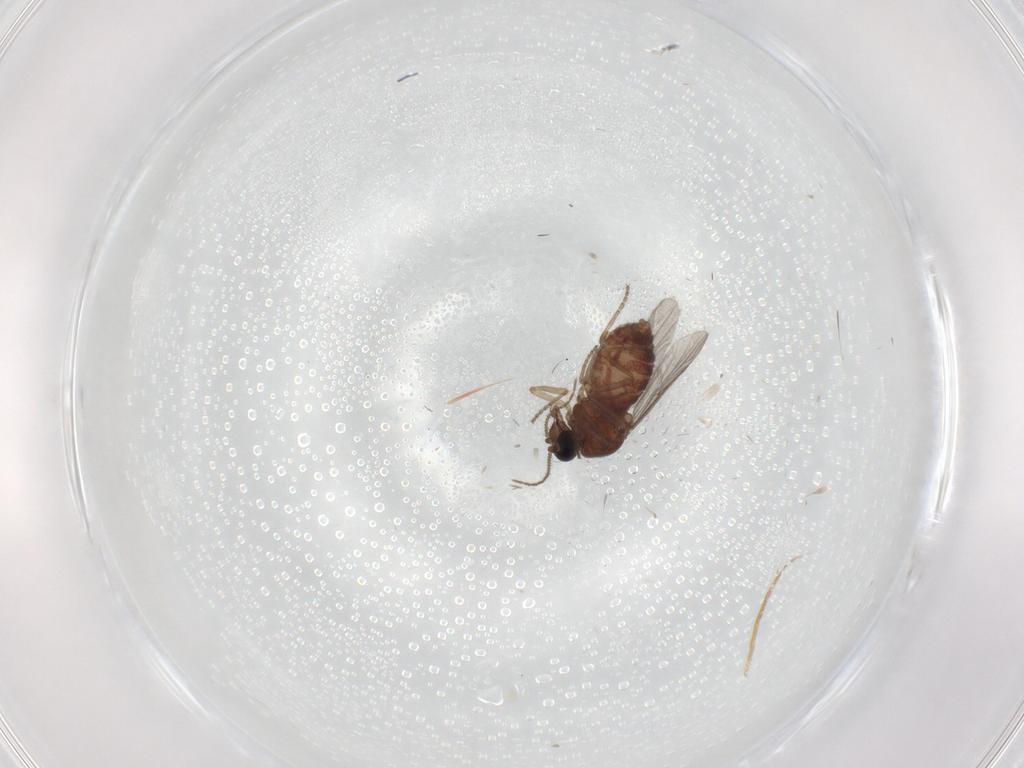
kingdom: Animalia
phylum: Arthropoda
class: Insecta
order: Diptera
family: Ceratopogonidae
